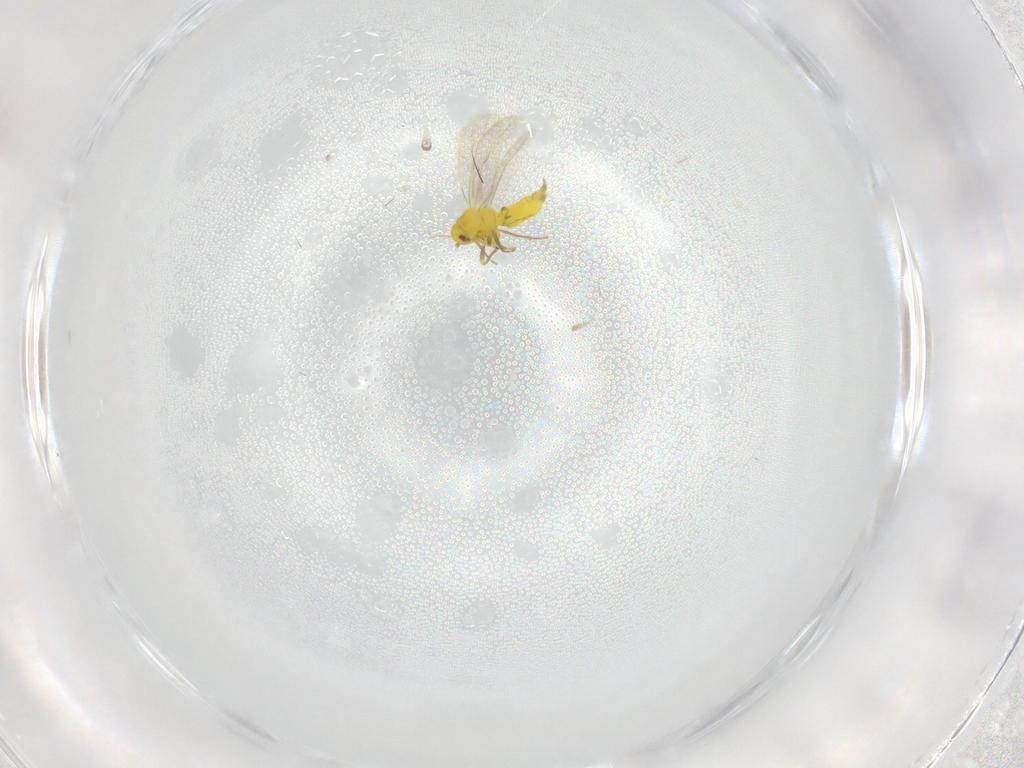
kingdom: Animalia
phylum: Arthropoda
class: Insecta
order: Hemiptera
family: Aleyrodidae
